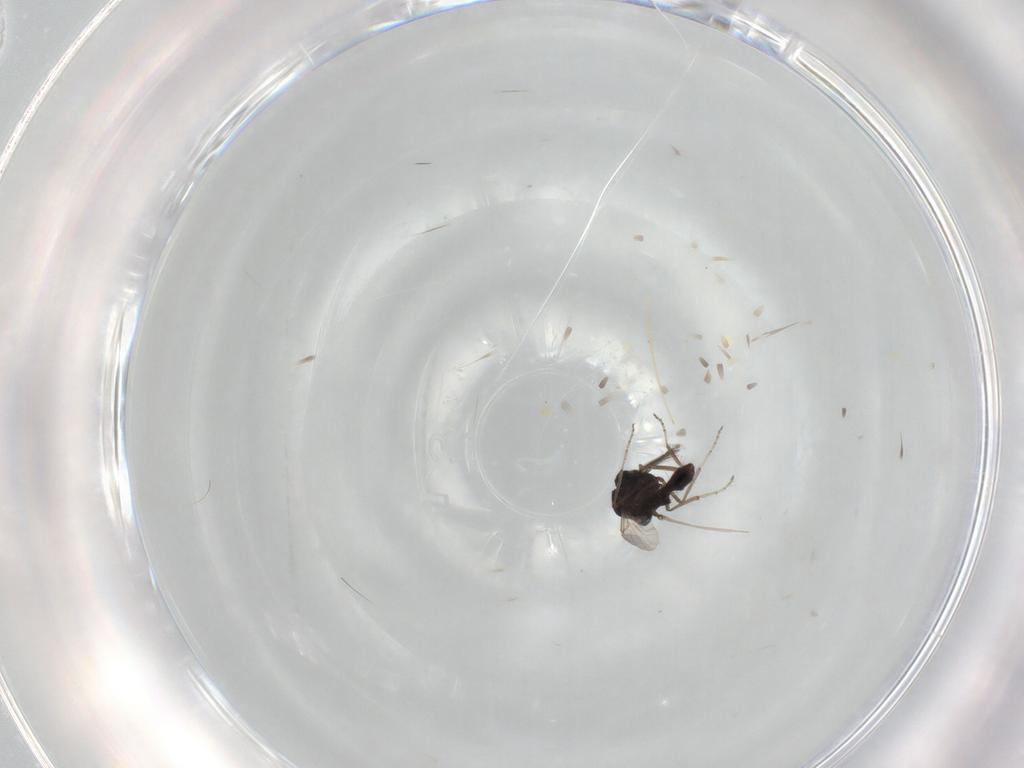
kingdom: Animalia
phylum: Arthropoda
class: Insecta
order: Diptera
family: Ceratopogonidae
